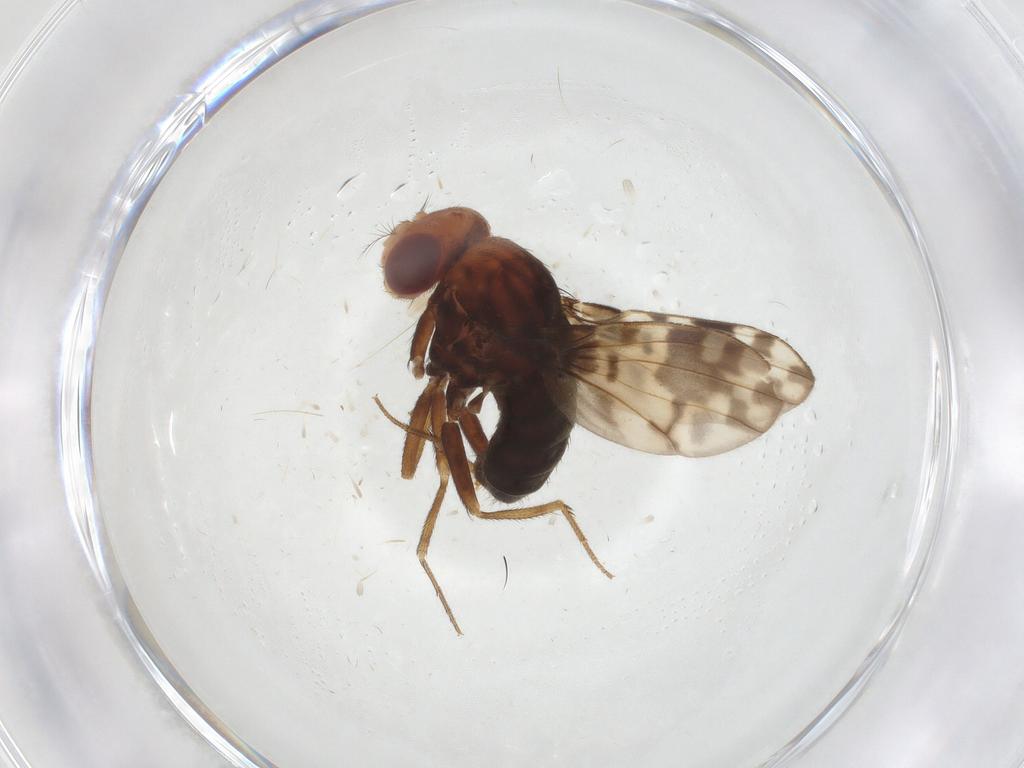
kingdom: Animalia
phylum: Arthropoda
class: Insecta
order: Diptera
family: Drosophilidae
